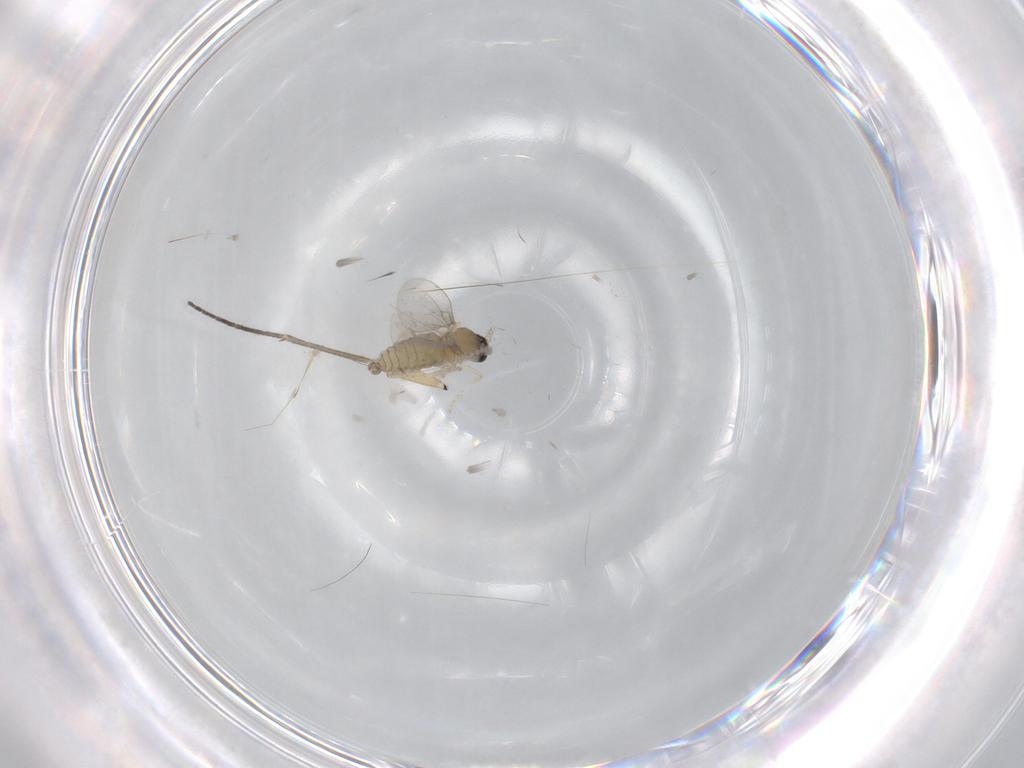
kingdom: Animalia
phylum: Arthropoda
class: Insecta
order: Diptera
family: Cecidomyiidae
